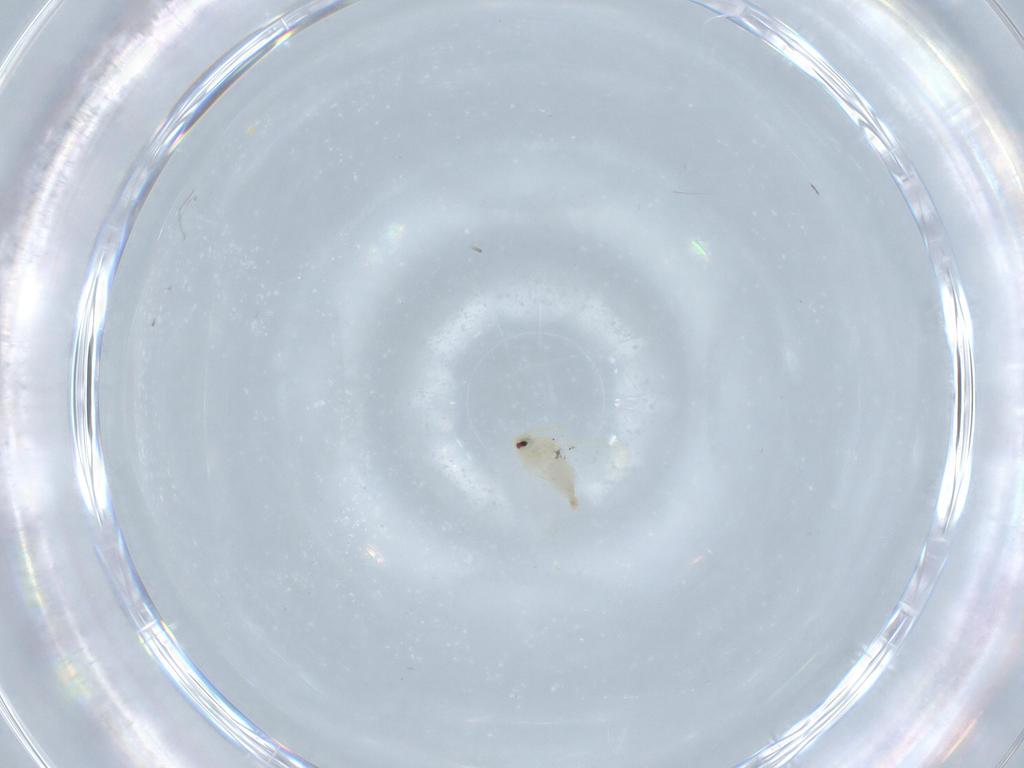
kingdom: Animalia
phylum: Arthropoda
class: Insecta
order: Hemiptera
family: Aleyrodidae
